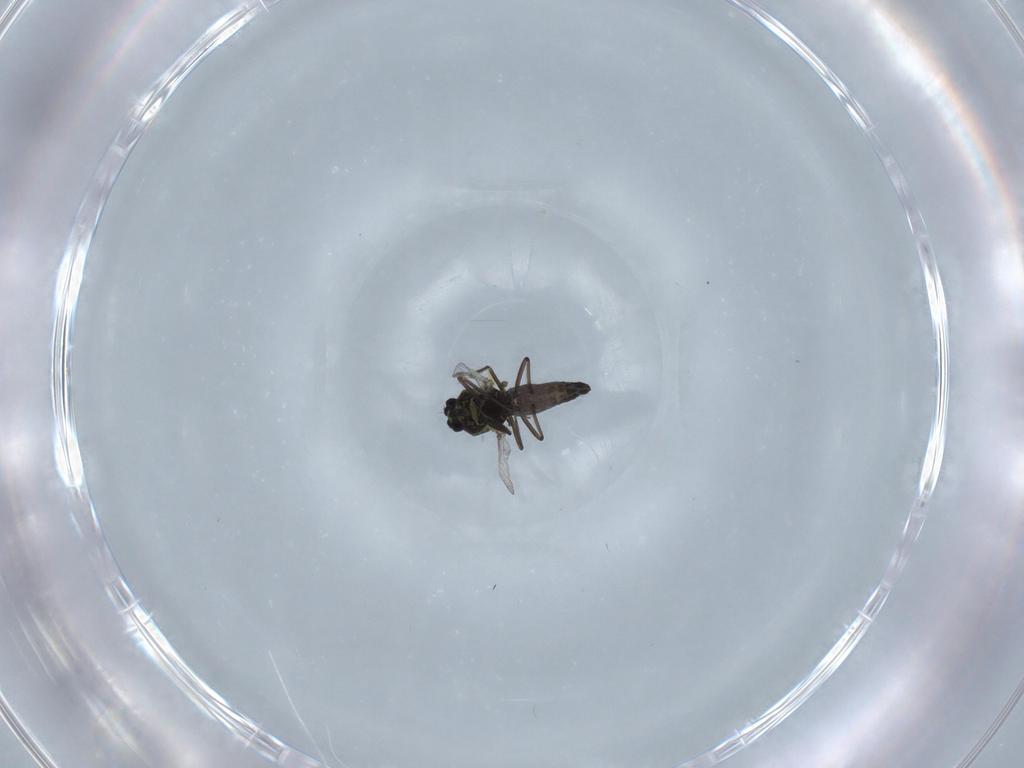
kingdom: Animalia
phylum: Arthropoda
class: Insecta
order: Diptera
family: Ceratopogonidae
